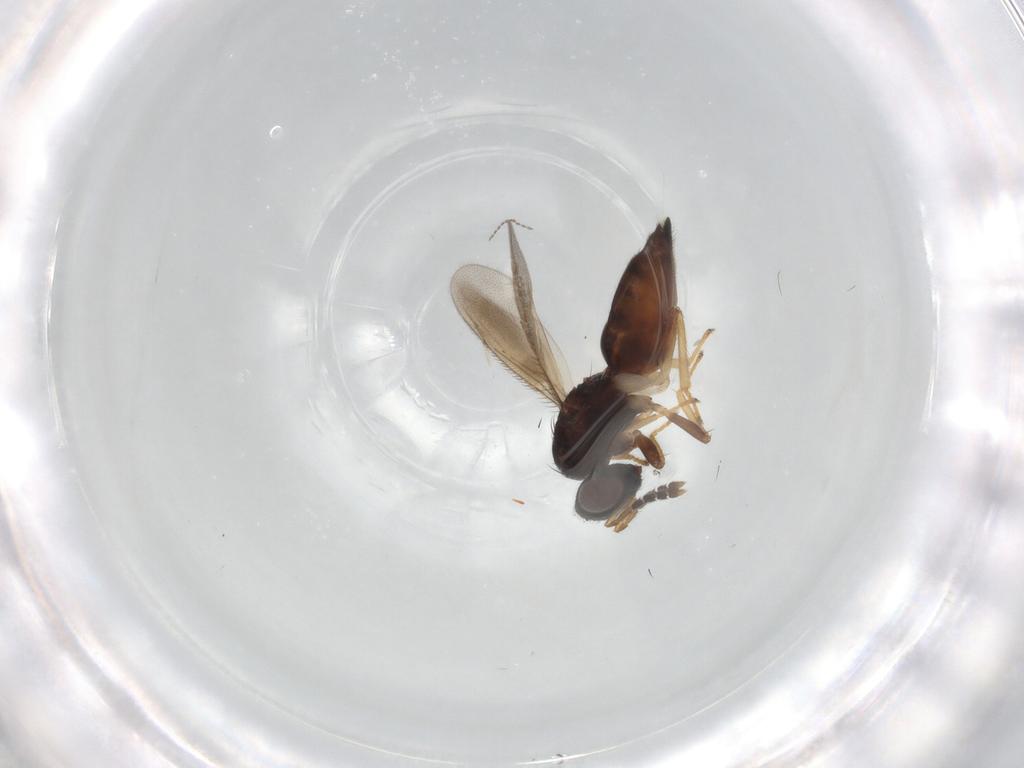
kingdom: Animalia
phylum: Arthropoda
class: Insecta
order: Hymenoptera
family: Eulophidae
